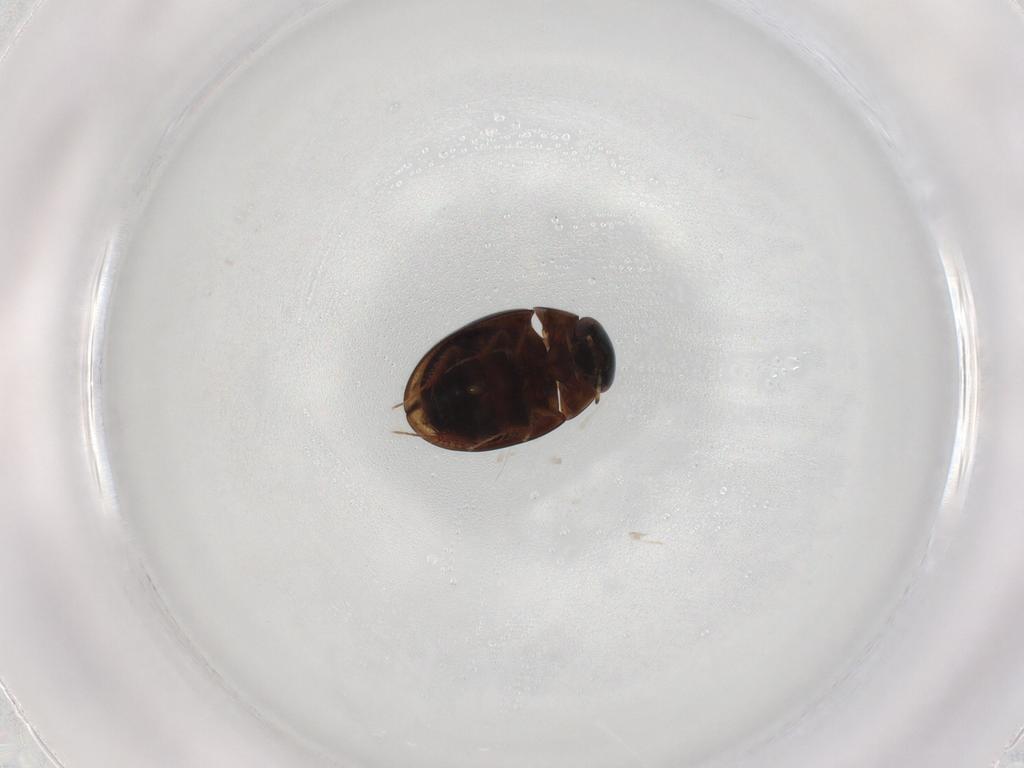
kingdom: Animalia
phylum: Arthropoda
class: Insecta
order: Coleoptera
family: Hydrophilidae
